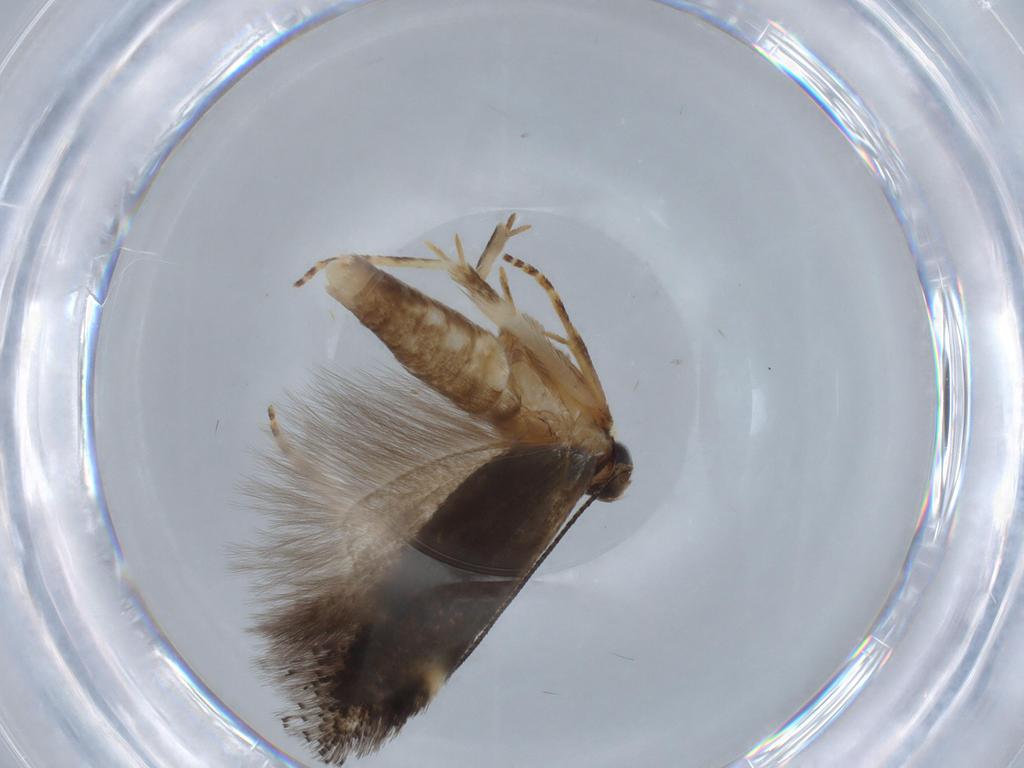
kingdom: Animalia
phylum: Arthropoda
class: Insecta
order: Lepidoptera
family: Gelechiidae
